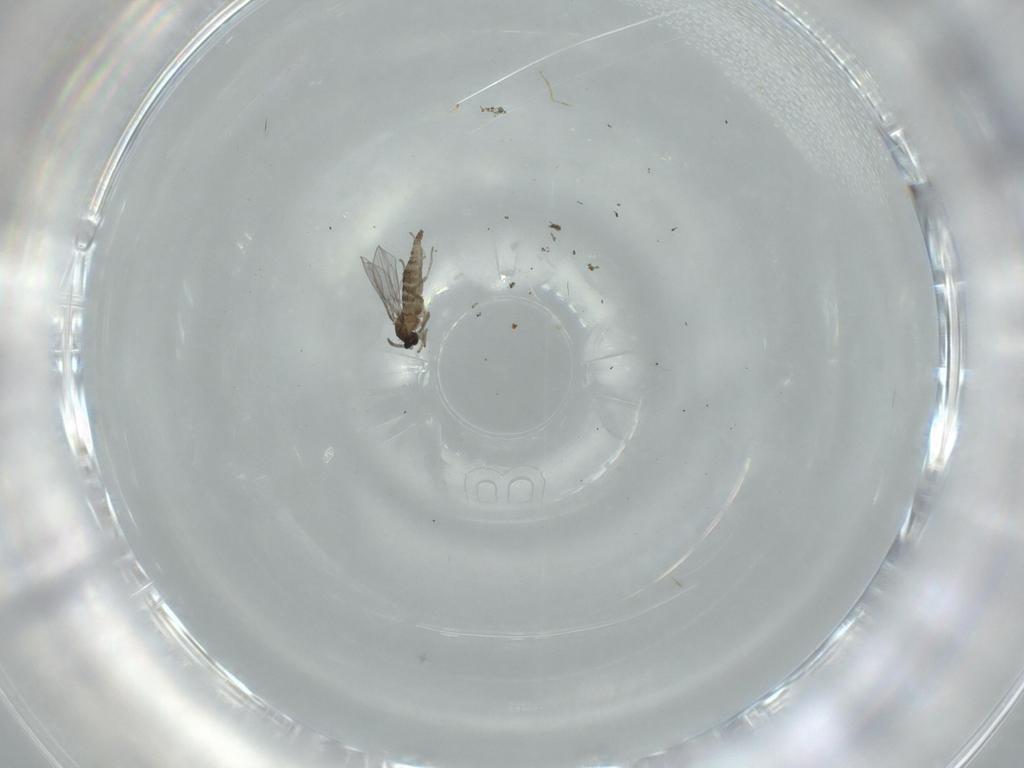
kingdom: Animalia
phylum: Arthropoda
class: Insecta
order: Diptera
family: Cecidomyiidae
